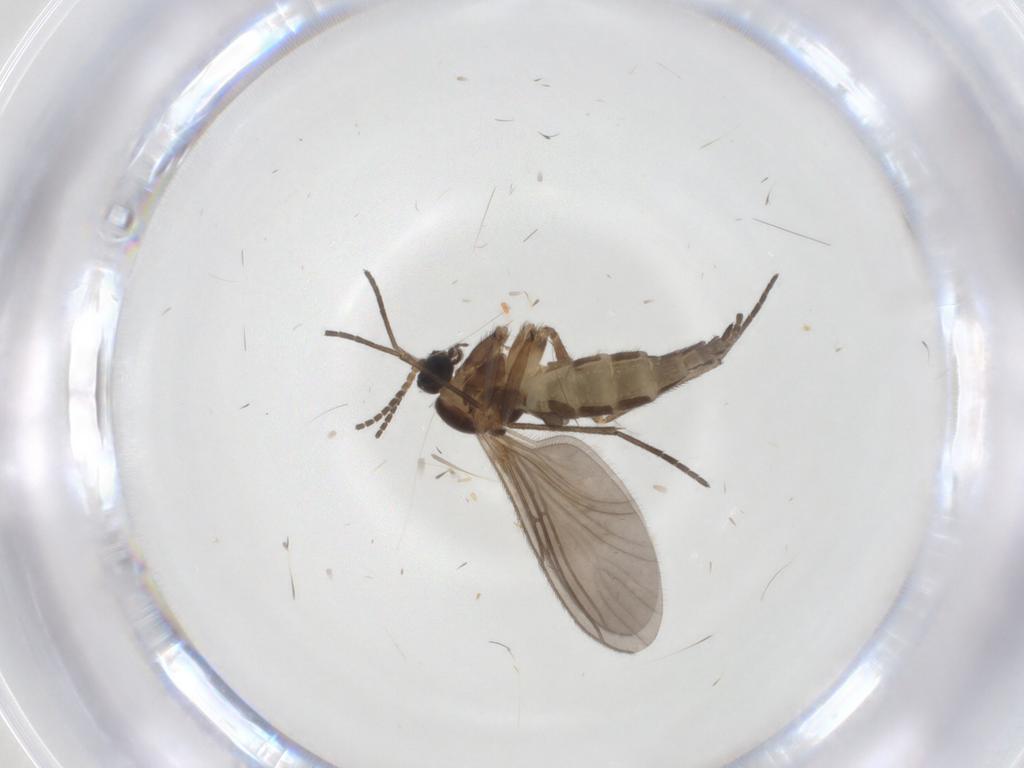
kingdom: Animalia
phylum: Arthropoda
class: Insecta
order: Diptera
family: Sciaridae
